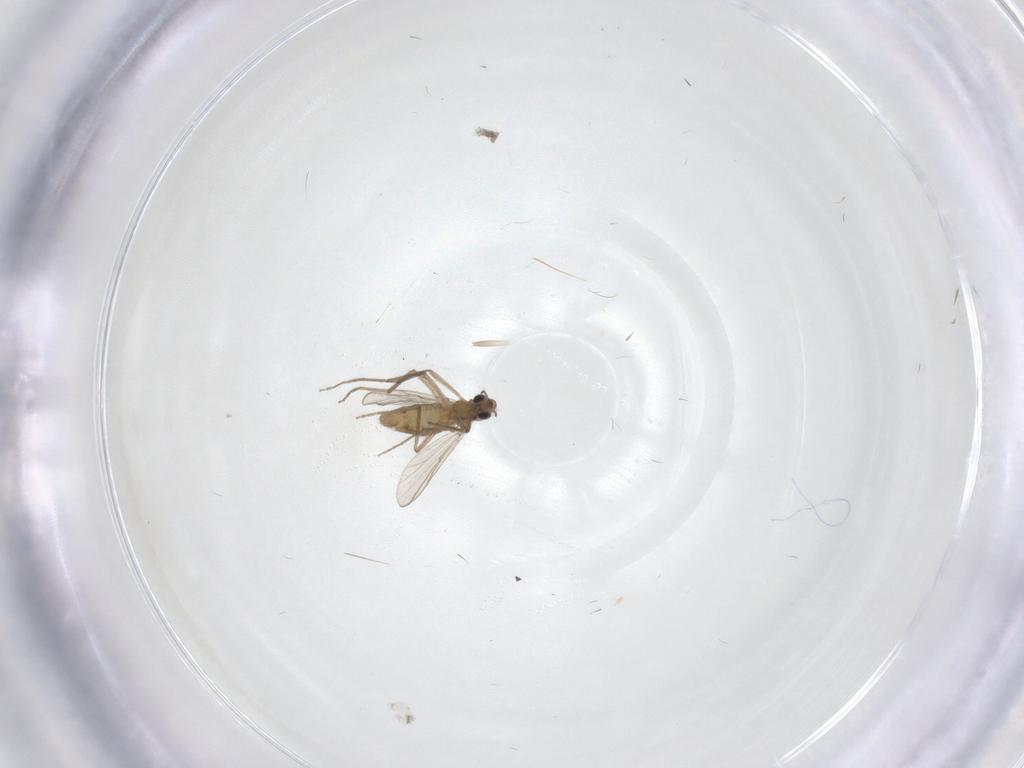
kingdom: Animalia
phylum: Arthropoda
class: Insecta
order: Diptera
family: Chironomidae
